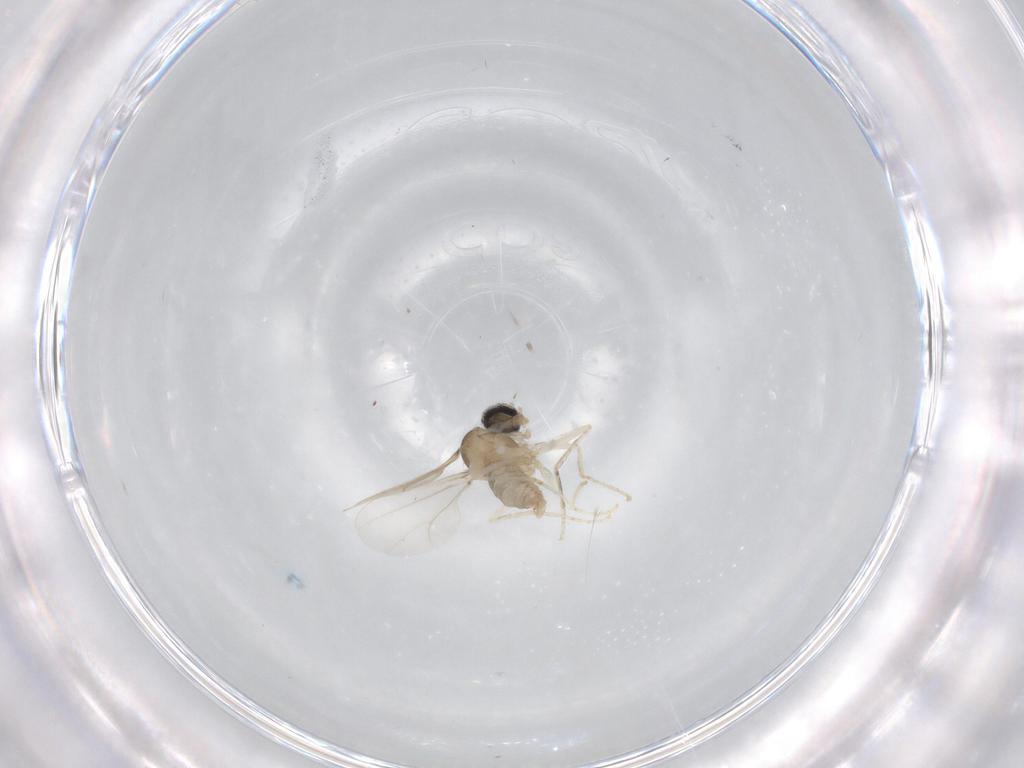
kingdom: Animalia
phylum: Arthropoda
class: Insecta
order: Diptera
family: Cecidomyiidae
